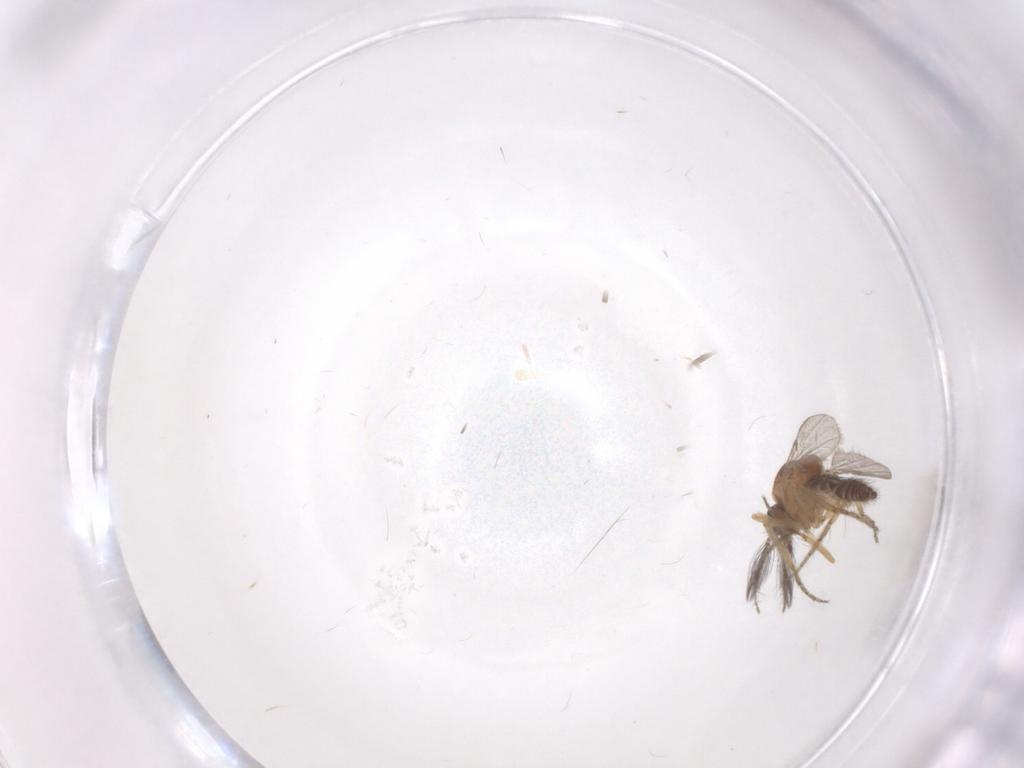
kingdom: Animalia
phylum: Arthropoda
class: Insecta
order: Diptera
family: Ceratopogonidae
